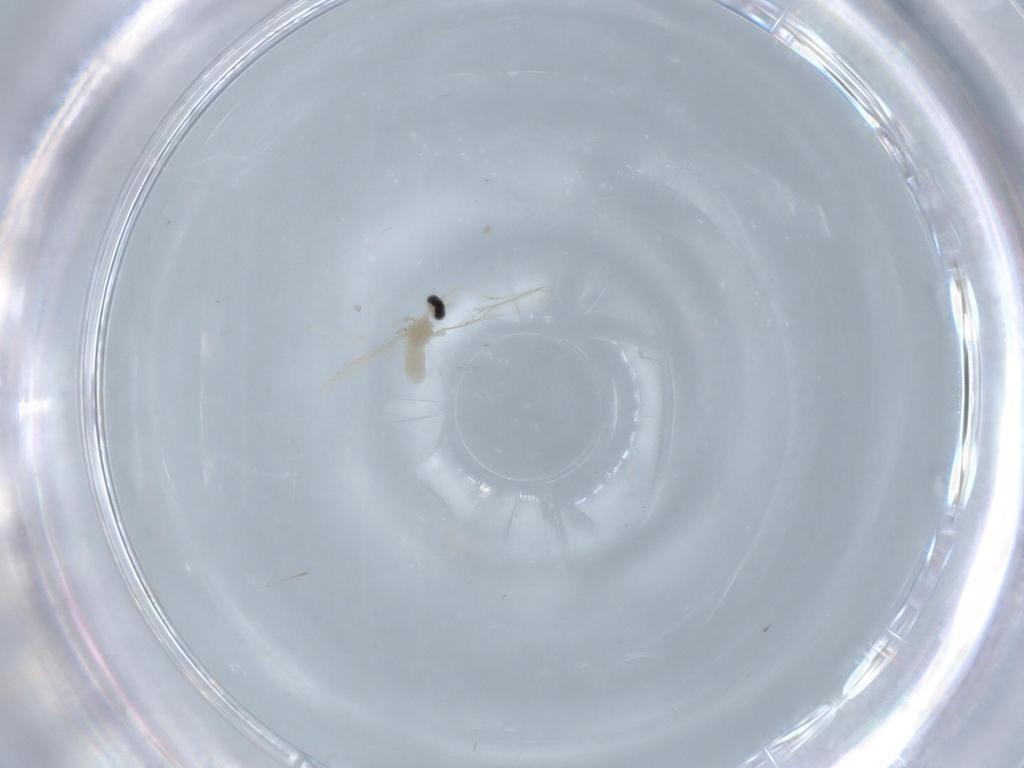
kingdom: Animalia
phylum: Arthropoda
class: Insecta
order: Diptera
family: Cecidomyiidae
